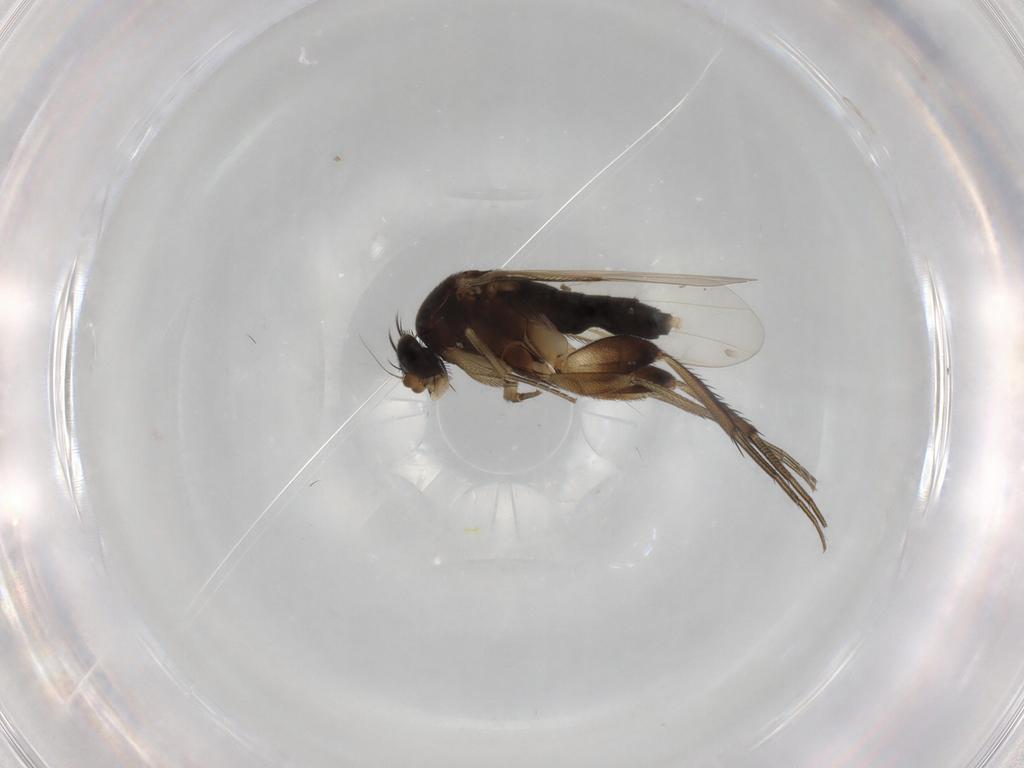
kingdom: Animalia
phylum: Arthropoda
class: Insecta
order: Diptera
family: Phoridae
